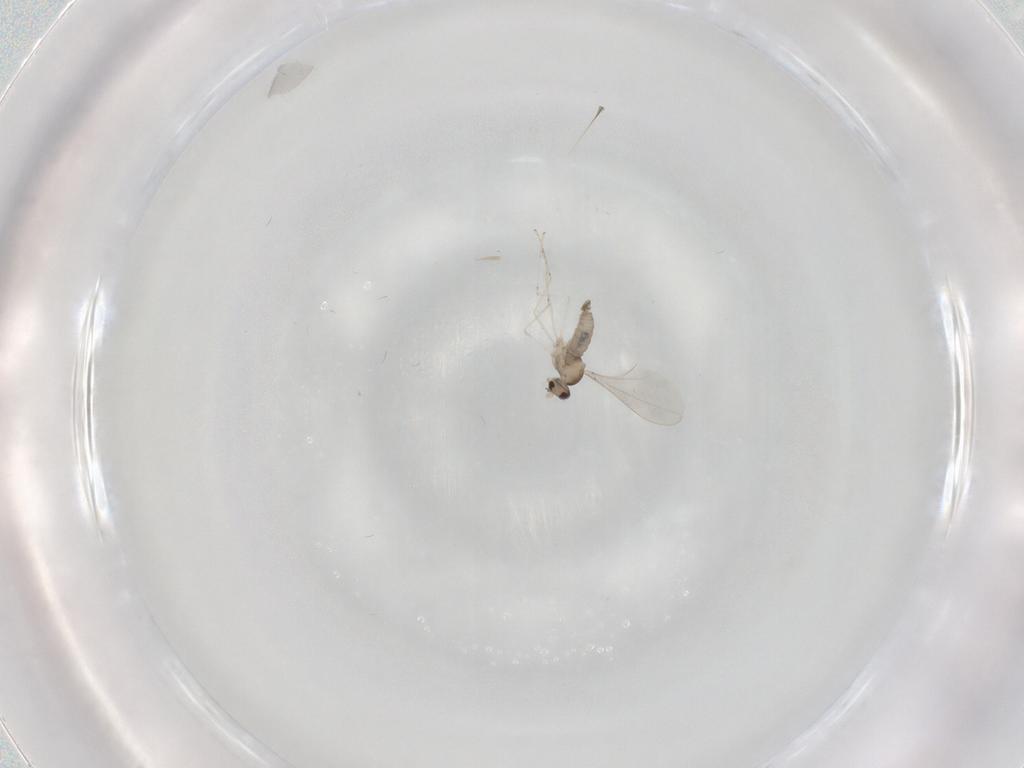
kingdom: Animalia
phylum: Arthropoda
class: Insecta
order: Diptera
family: Cecidomyiidae
